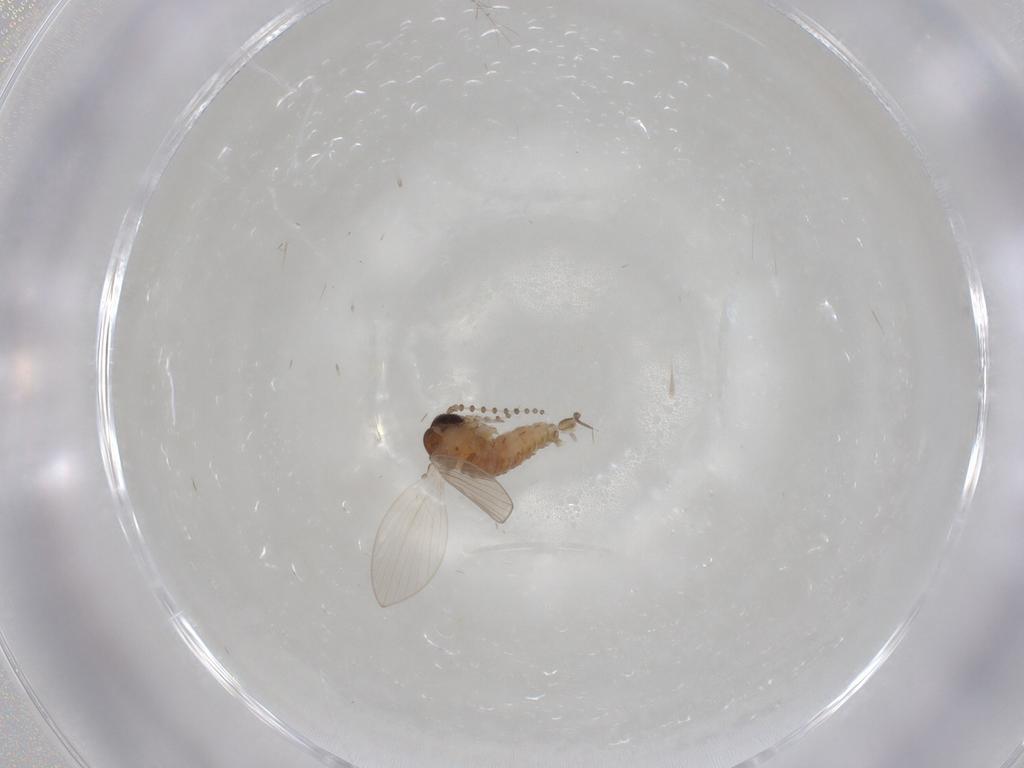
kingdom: Animalia
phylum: Arthropoda
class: Insecta
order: Diptera
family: Psychodidae
